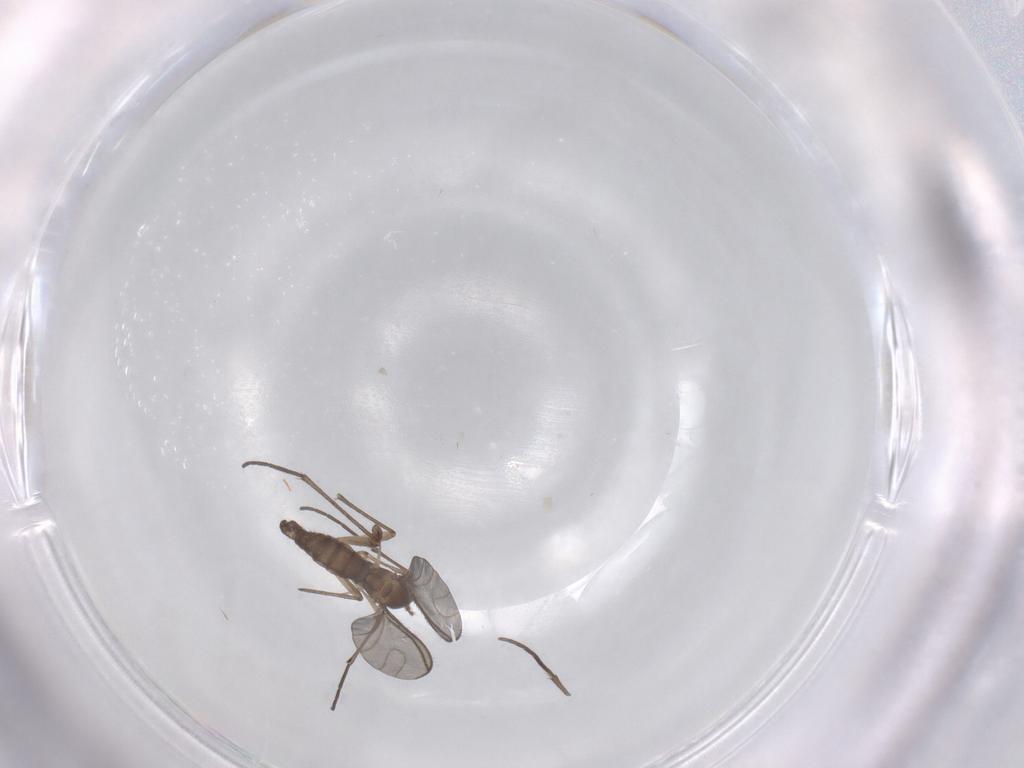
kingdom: Animalia
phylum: Arthropoda
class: Insecta
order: Diptera
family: Sciaridae
